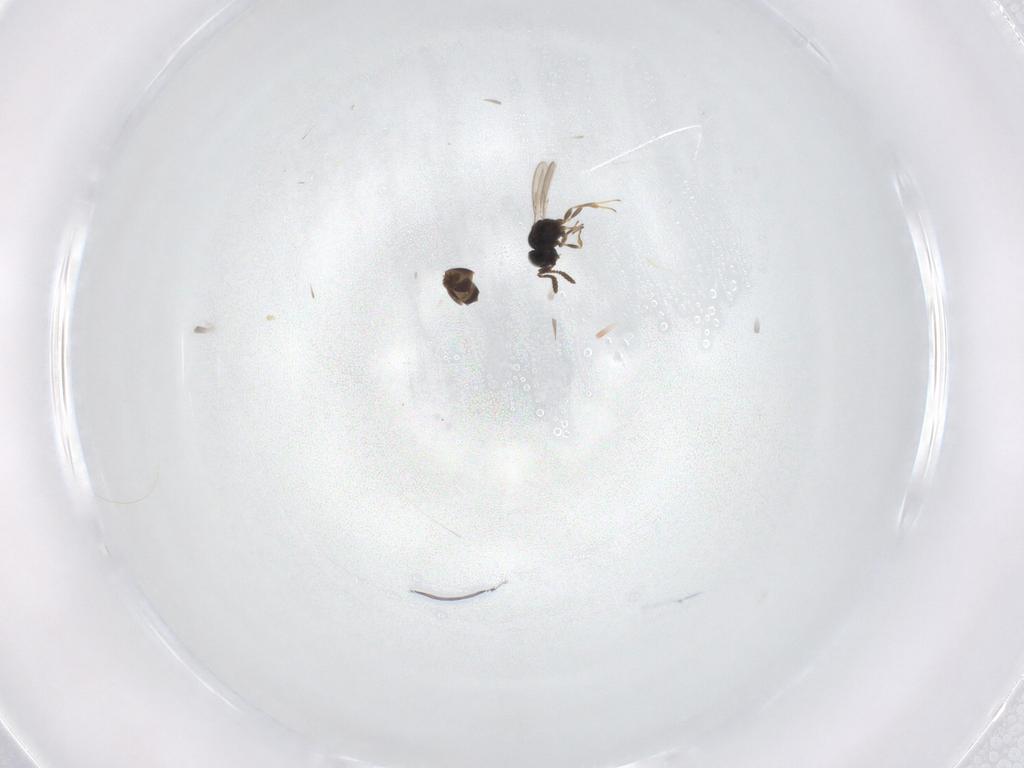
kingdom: Animalia
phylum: Arthropoda
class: Insecta
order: Hymenoptera
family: Scelionidae
